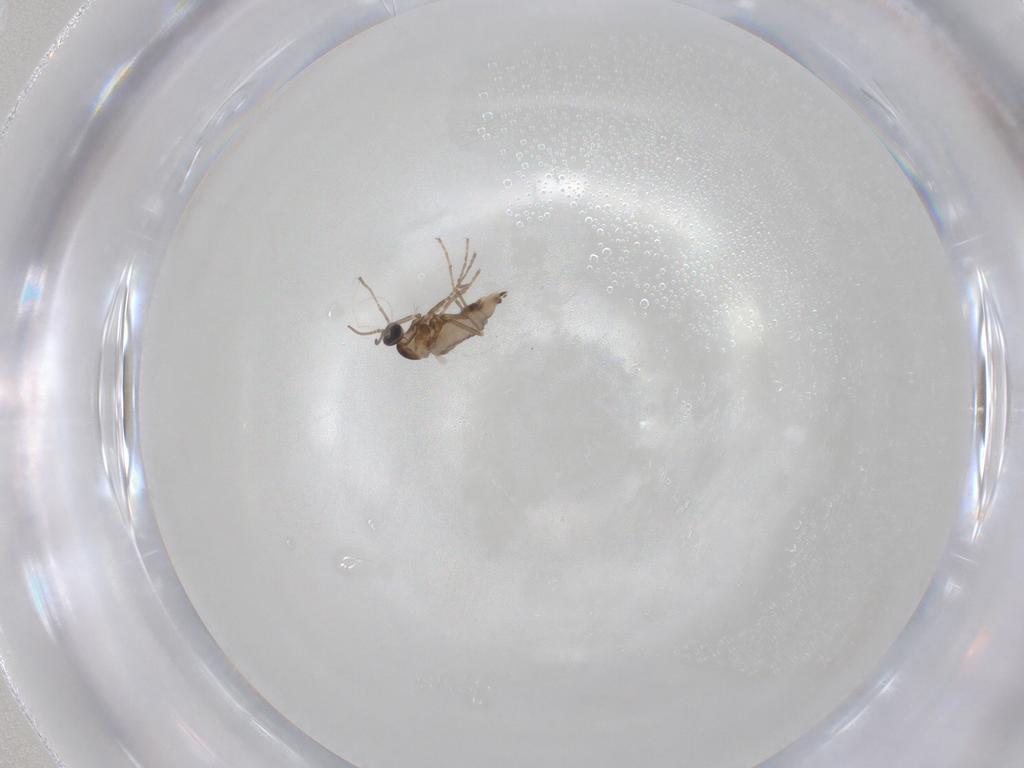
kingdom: Animalia
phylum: Arthropoda
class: Insecta
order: Diptera
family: Cecidomyiidae
